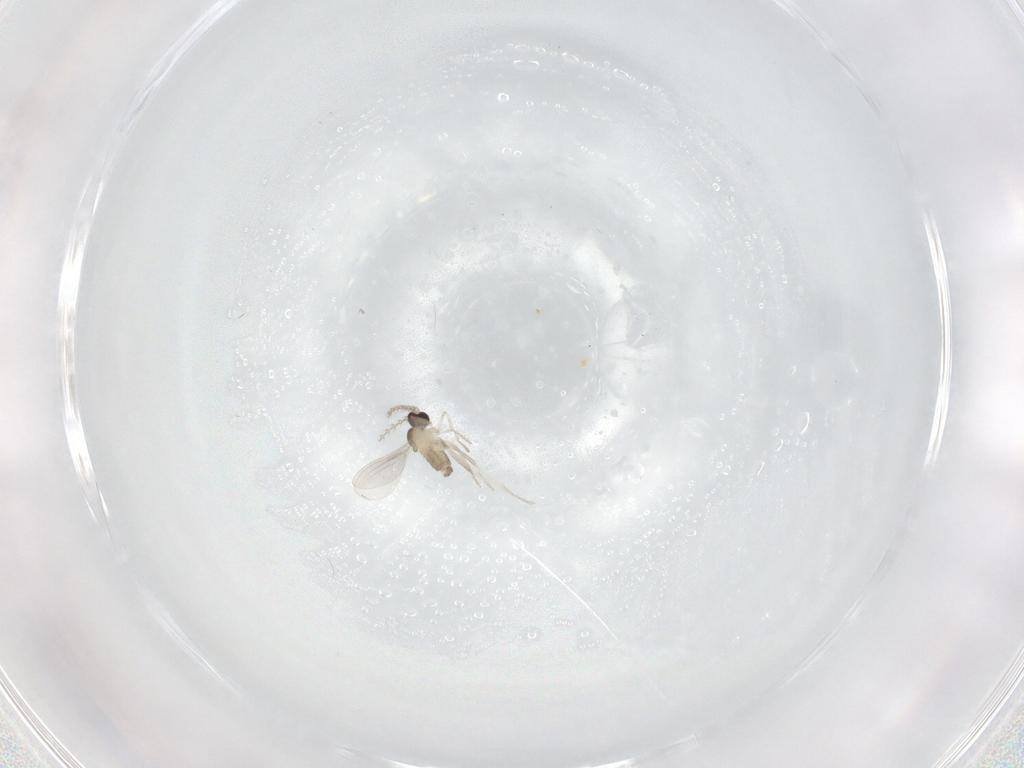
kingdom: Animalia
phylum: Arthropoda
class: Insecta
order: Diptera
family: Cecidomyiidae
